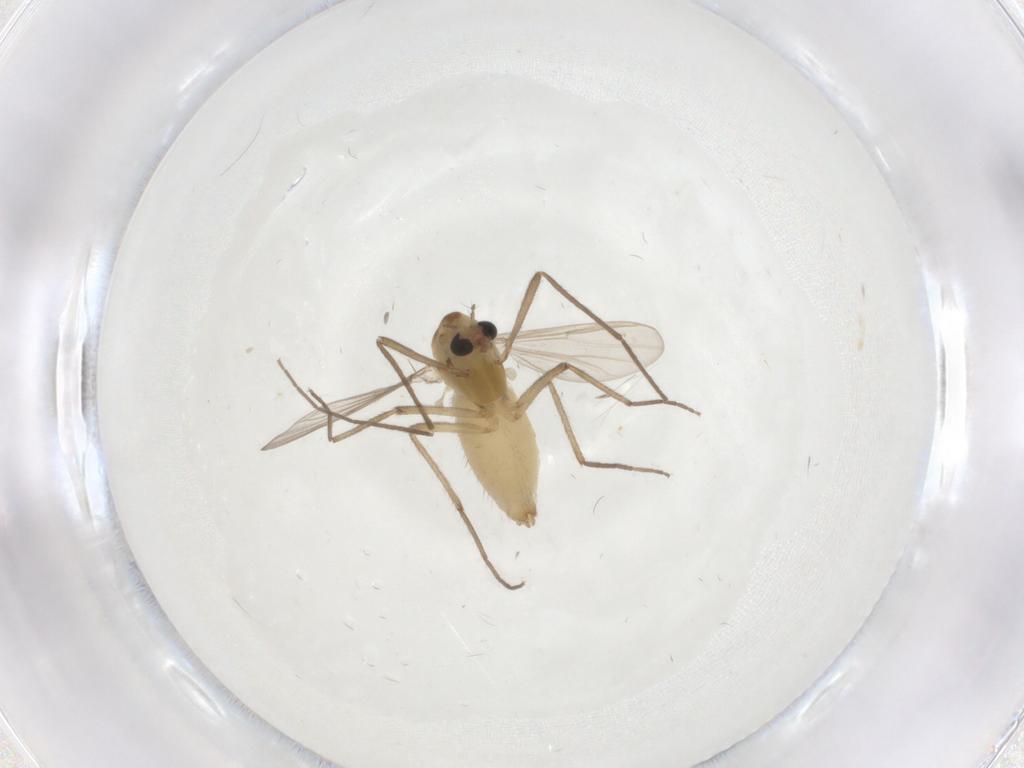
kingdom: Animalia
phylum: Arthropoda
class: Insecta
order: Diptera
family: Chironomidae
